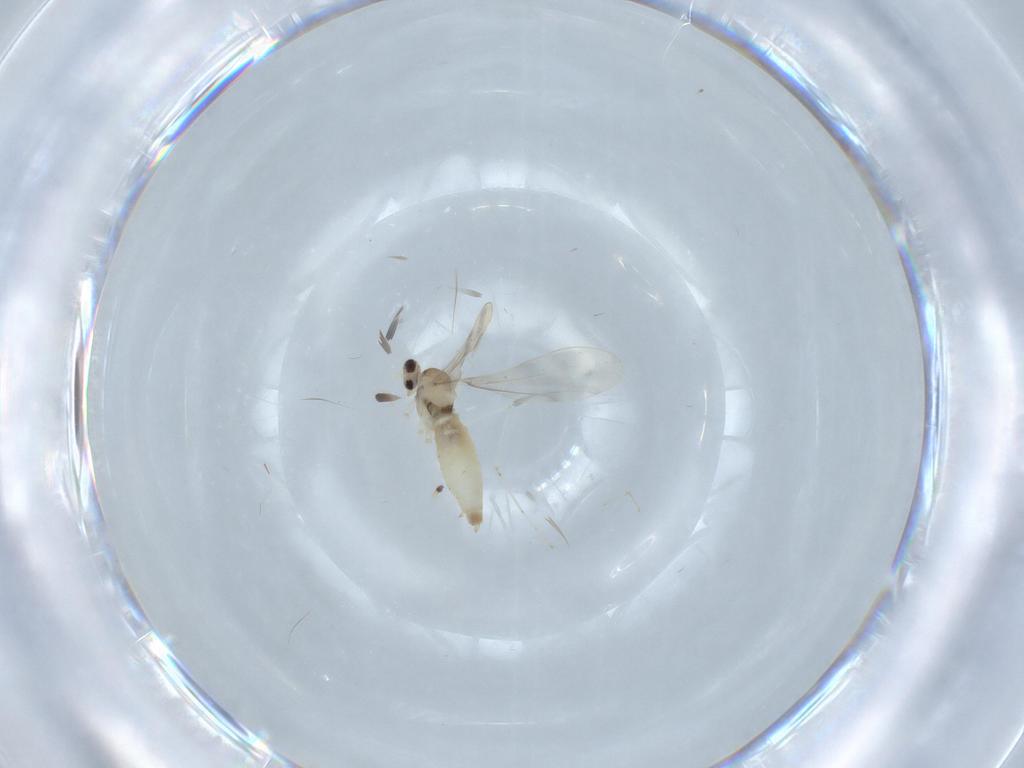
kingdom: Animalia
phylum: Arthropoda
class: Insecta
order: Diptera
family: Cecidomyiidae
